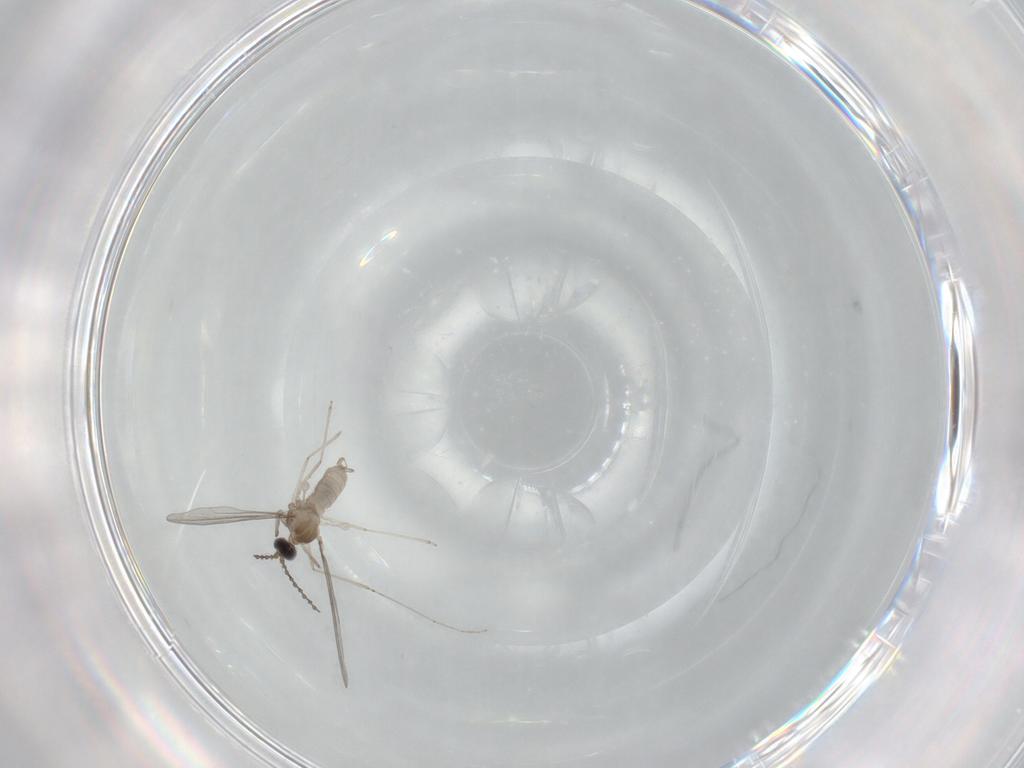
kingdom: Animalia
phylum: Arthropoda
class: Insecta
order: Diptera
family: Cecidomyiidae
